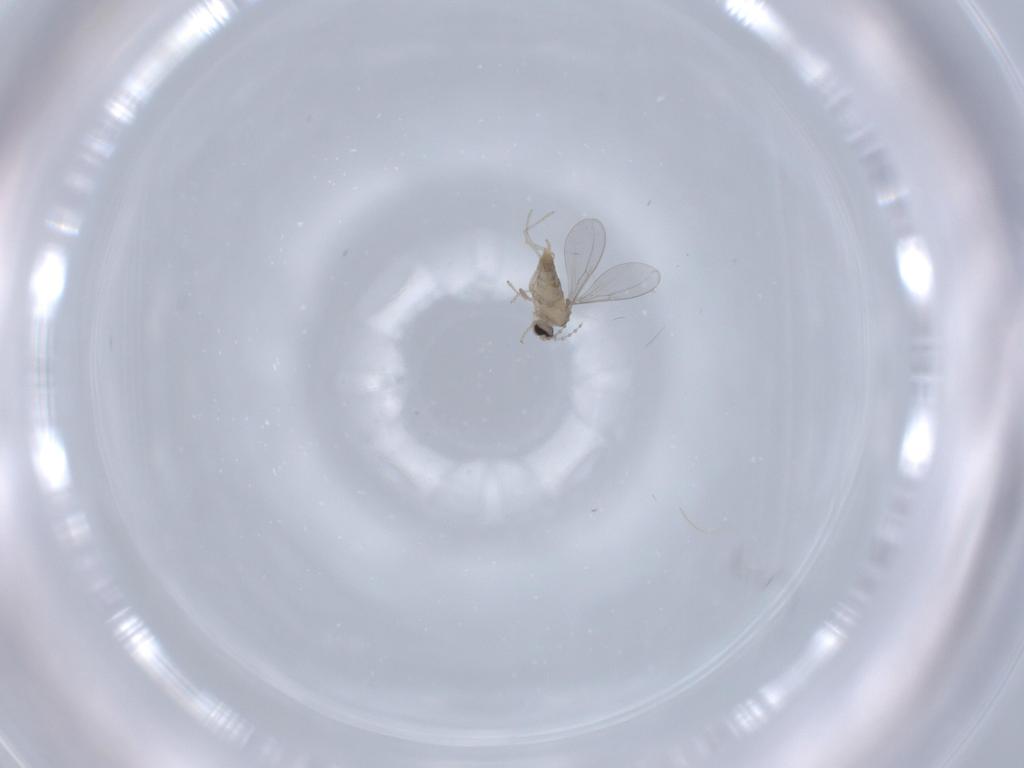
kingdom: Animalia
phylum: Arthropoda
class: Insecta
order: Diptera
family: Cecidomyiidae
